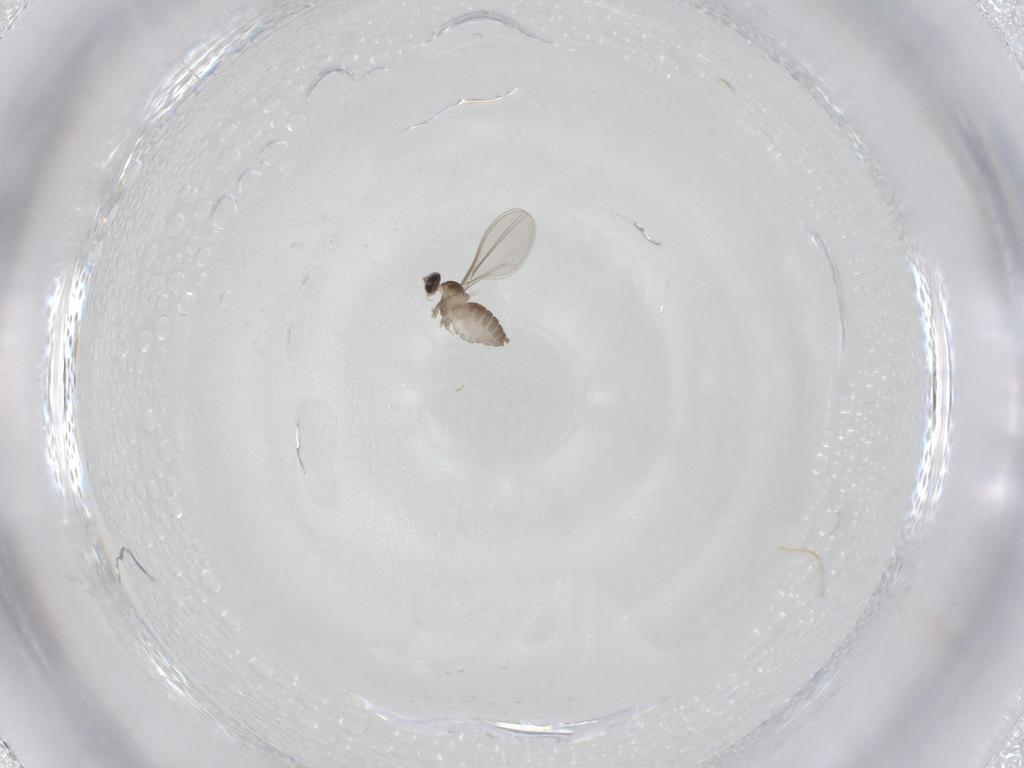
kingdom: Animalia
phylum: Arthropoda
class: Insecta
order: Diptera
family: Cecidomyiidae
